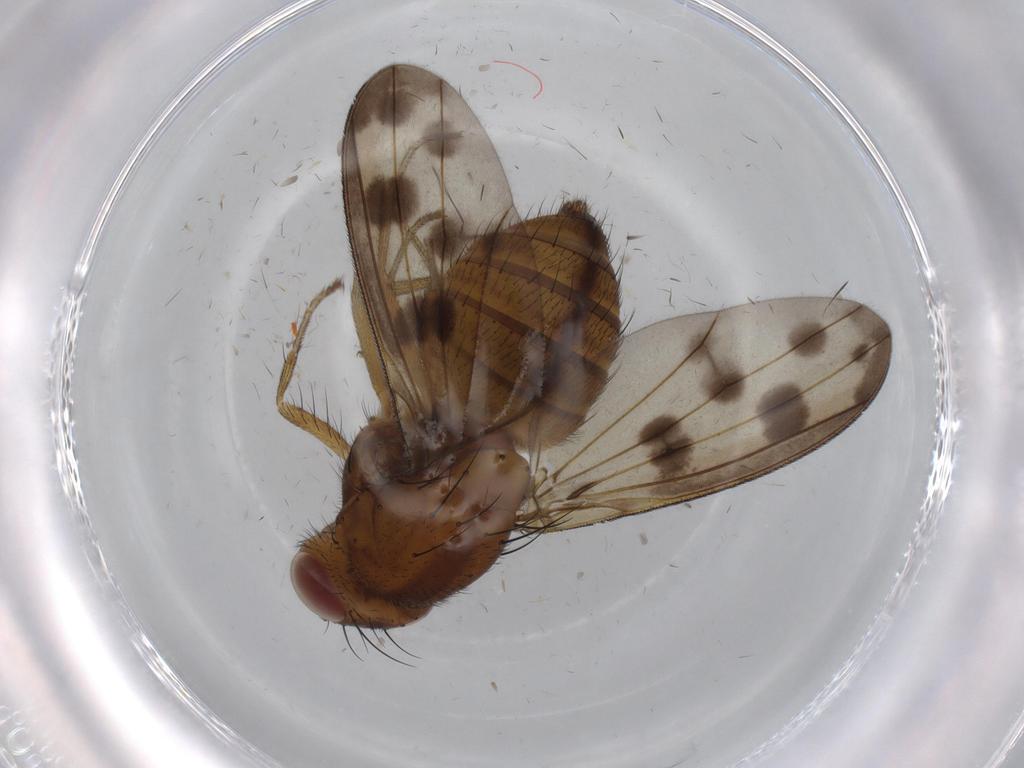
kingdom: Animalia
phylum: Arthropoda
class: Insecta
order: Diptera
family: Cecidomyiidae
